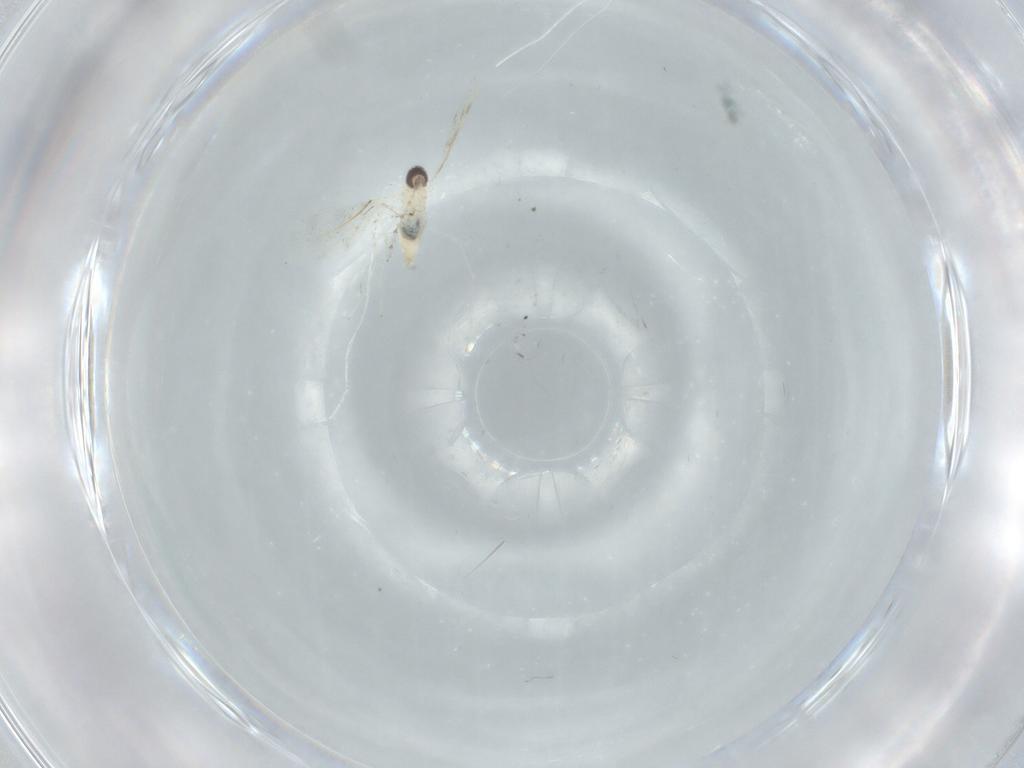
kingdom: Animalia
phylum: Arthropoda
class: Insecta
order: Diptera
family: Cecidomyiidae
